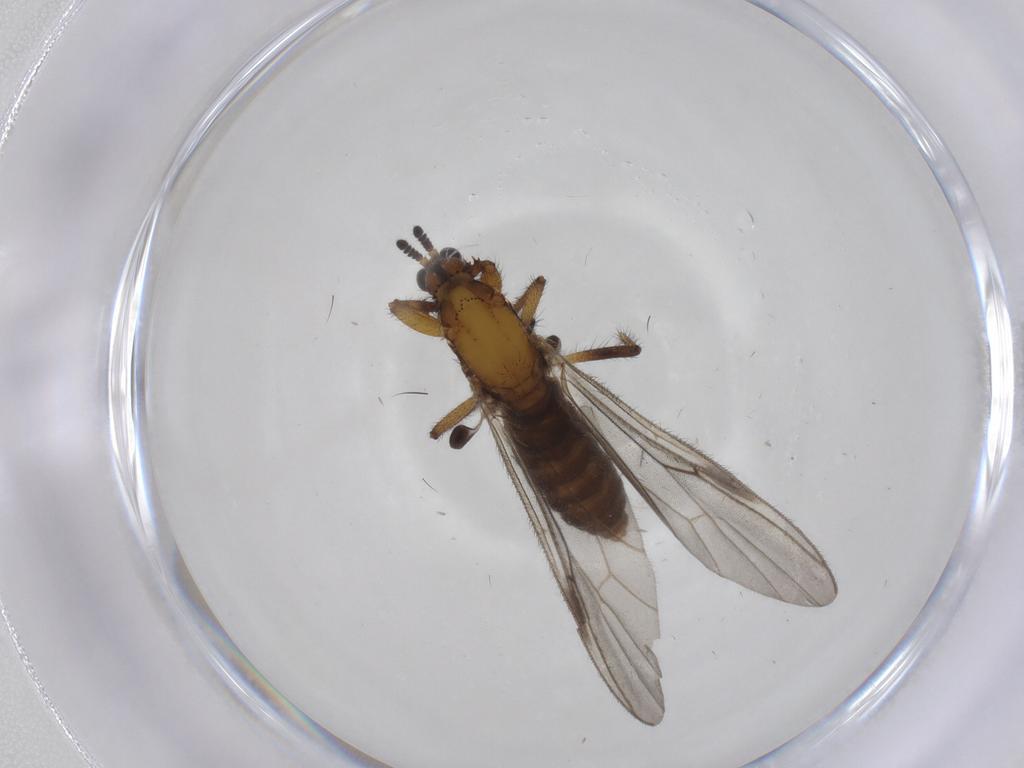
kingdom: Animalia
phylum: Arthropoda
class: Insecta
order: Diptera
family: Bibionidae
